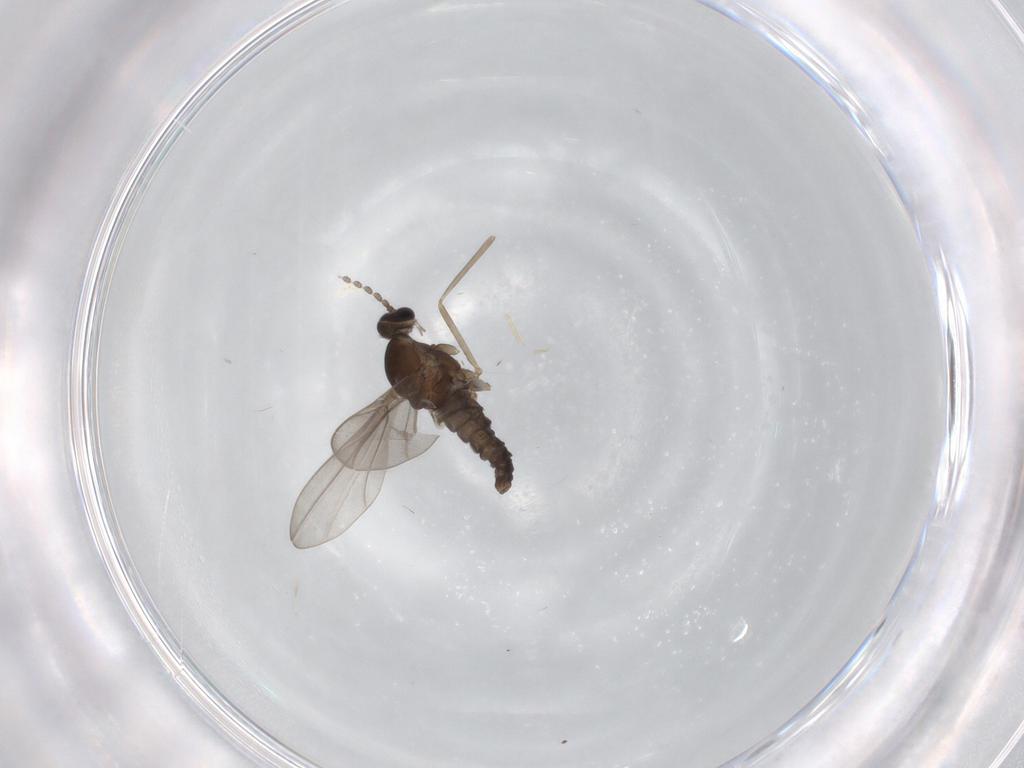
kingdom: Animalia
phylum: Arthropoda
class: Insecta
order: Diptera
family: Cecidomyiidae
